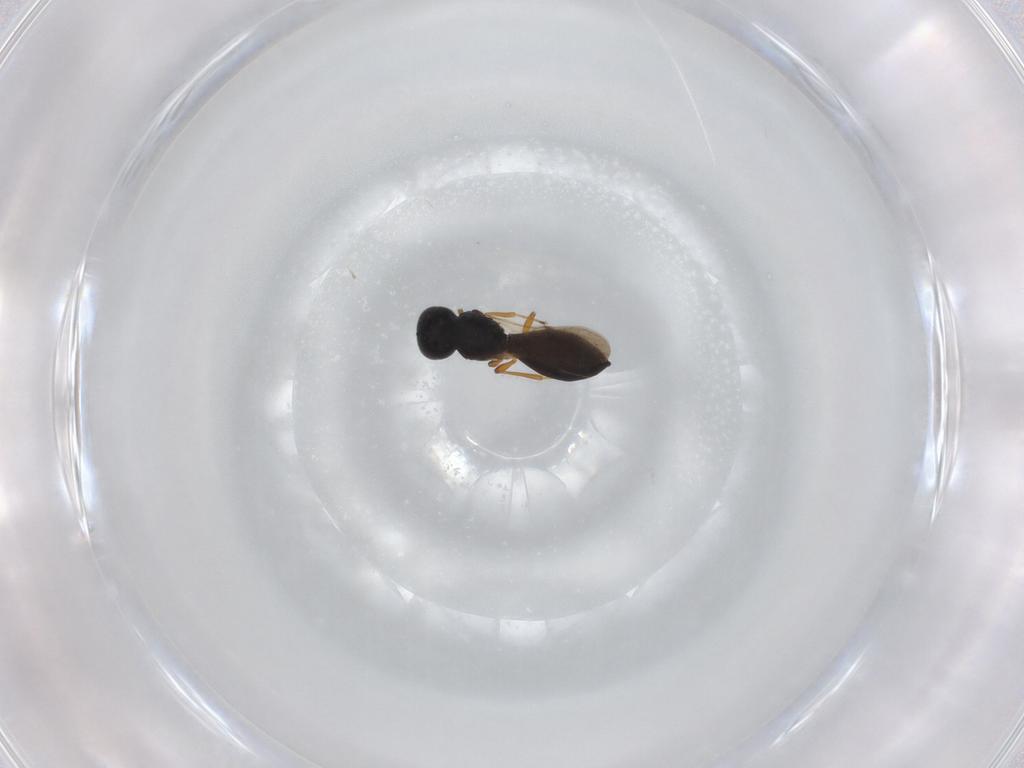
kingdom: Animalia
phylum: Arthropoda
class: Insecta
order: Hymenoptera
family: Scelionidae
